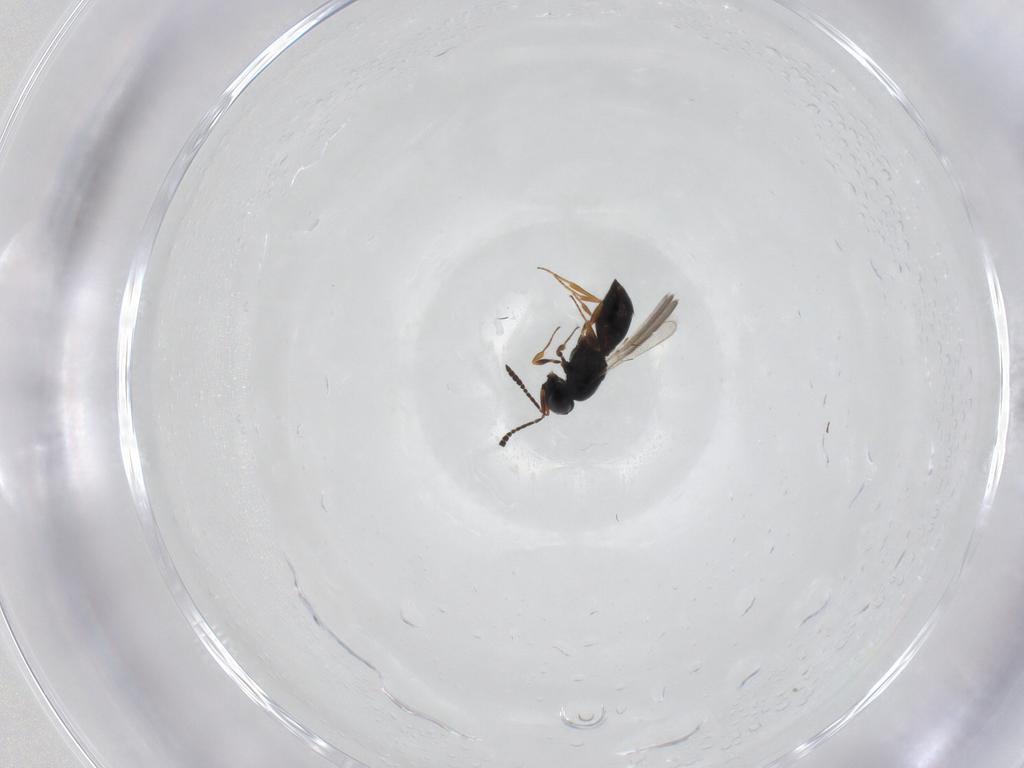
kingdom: Animalia
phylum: Arthropoda
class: Insecta
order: Hymenoptera
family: Scelionidae
